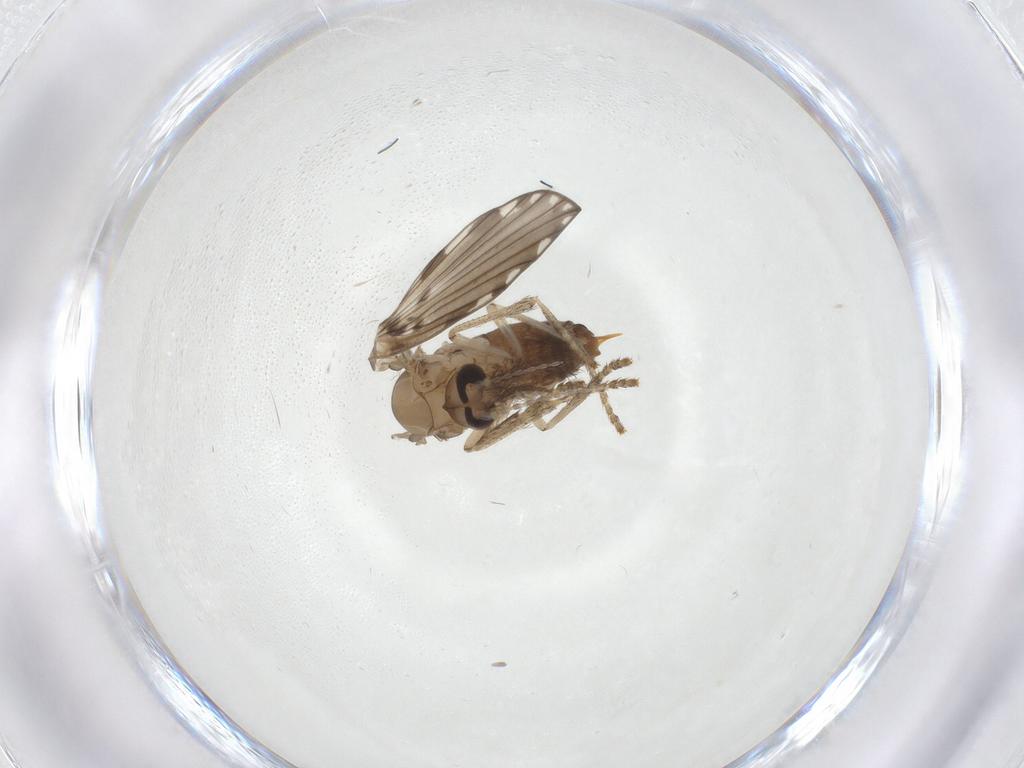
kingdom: Animalia
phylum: Arthropoda
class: Insecta
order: Diptera
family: Psychodidae
